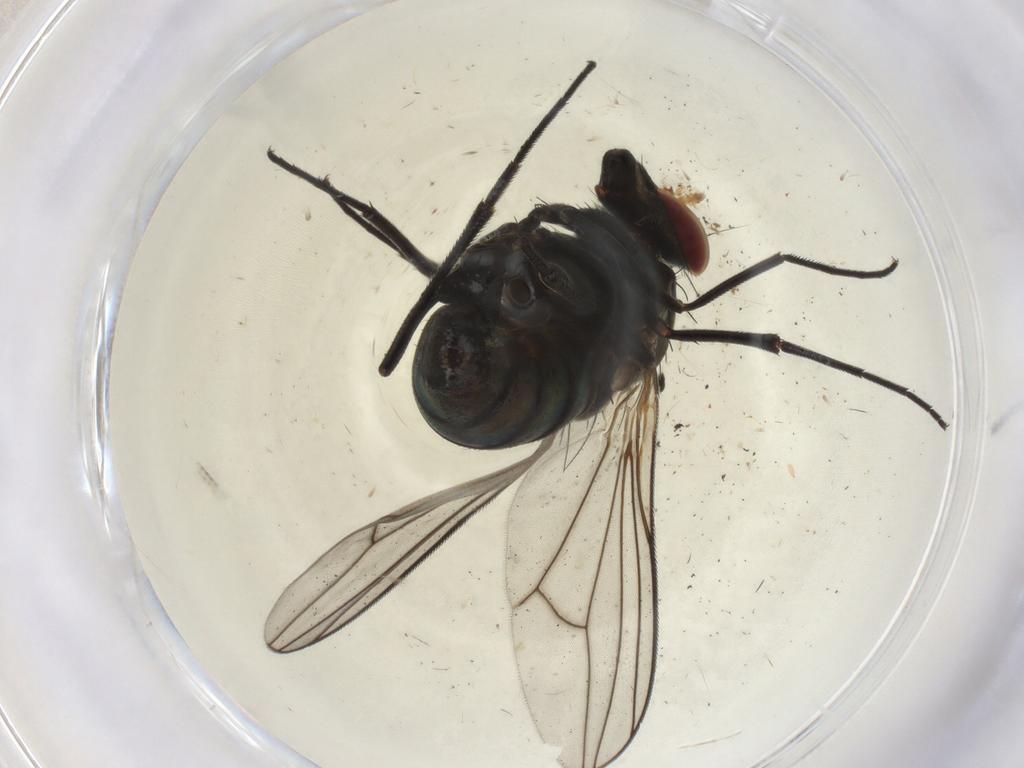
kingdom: Animalia
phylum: Arthropoda
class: Insecta
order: Diptera
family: Dolichopodidae
